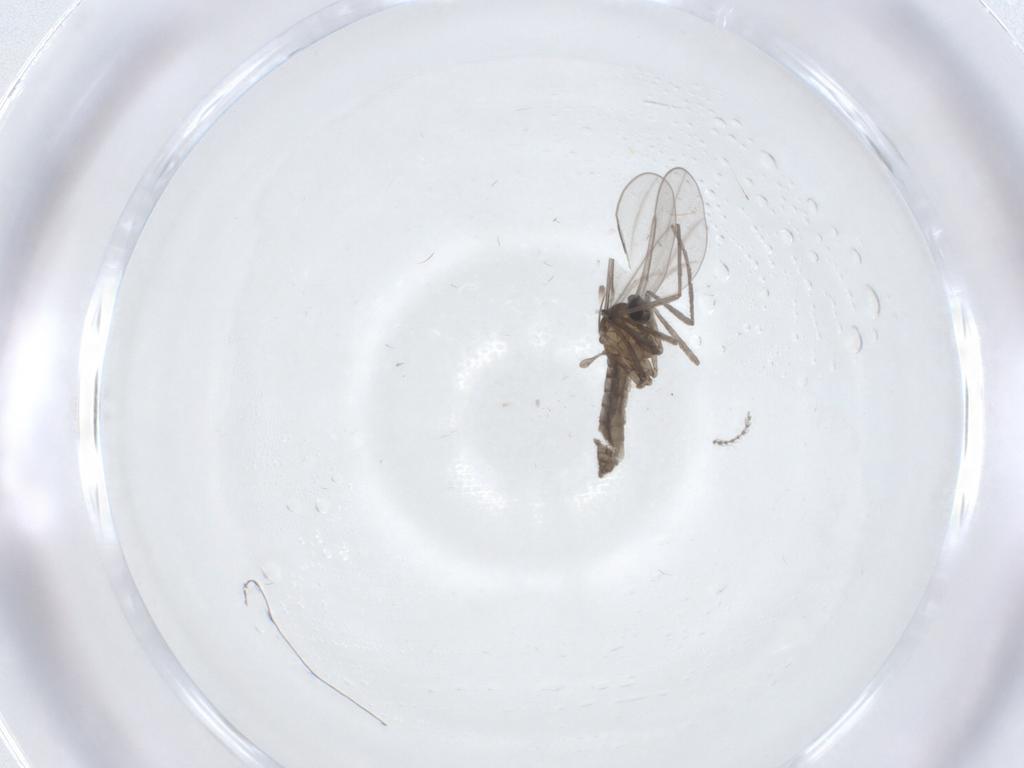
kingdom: Animalia
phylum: Arthropoda
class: Insecta
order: Diptera
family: Cecidomyiidae
